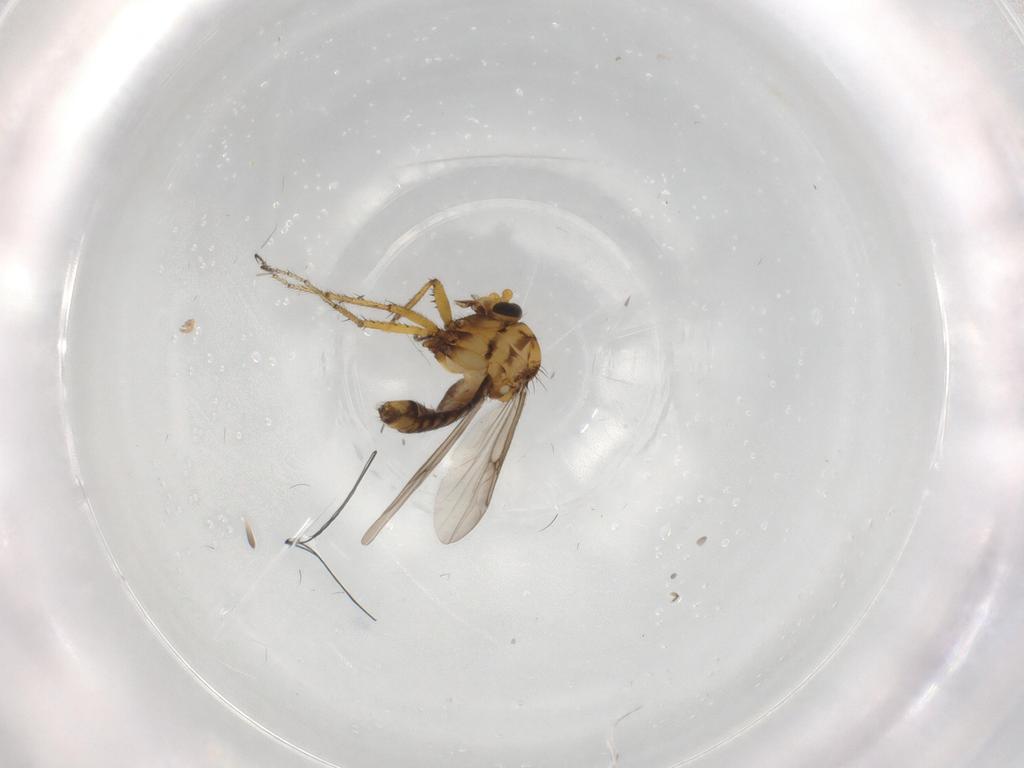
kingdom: Animalia
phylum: Arthropoda
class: Insecta
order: Diptera
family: Ceratopogonidae
